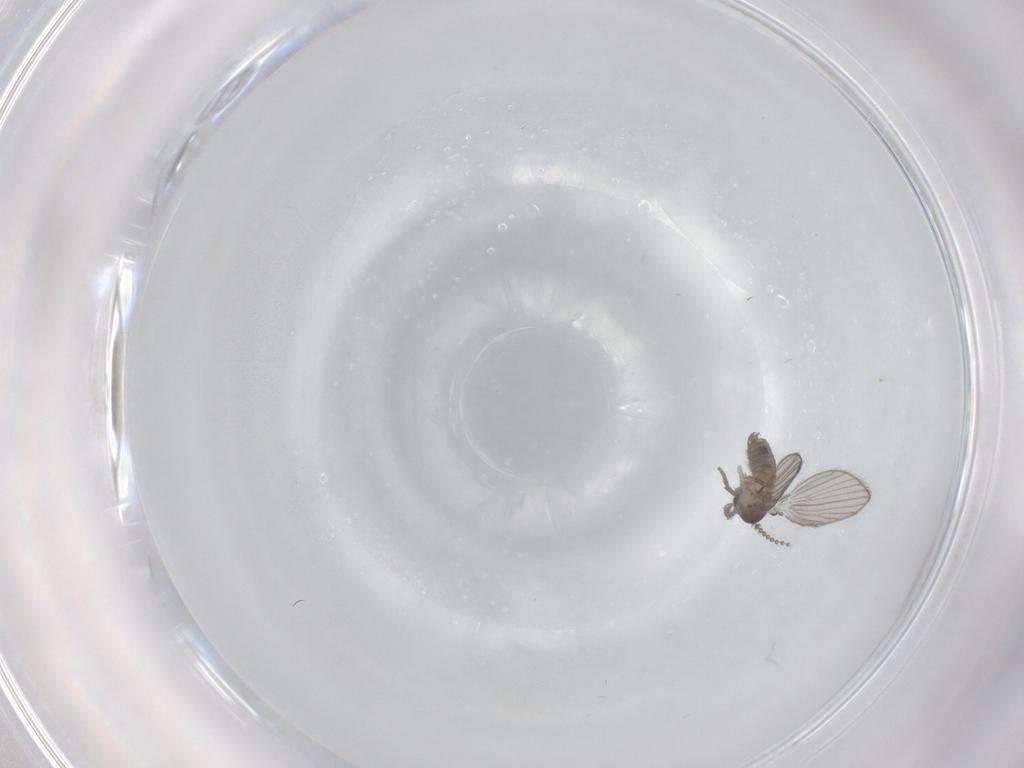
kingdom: Animalia
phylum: Arthropoda
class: Insecta
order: Diptera
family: Psychodidae
